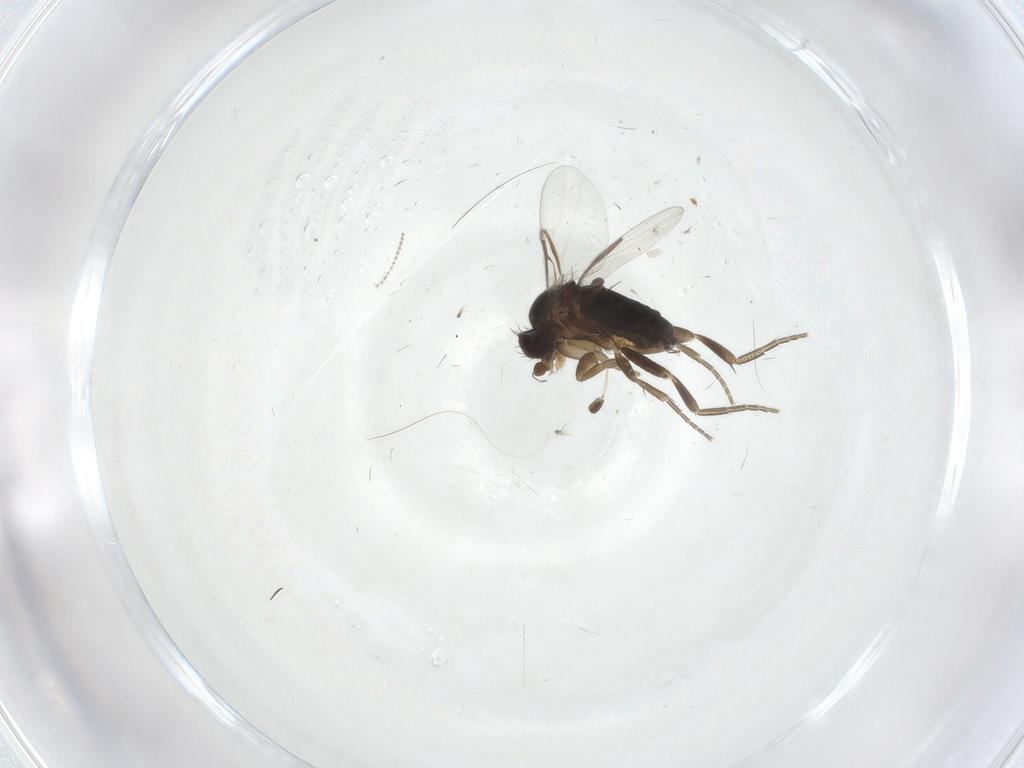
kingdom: Animalia
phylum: Arthropoda
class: Insecta
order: Diptera
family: Phoridae
